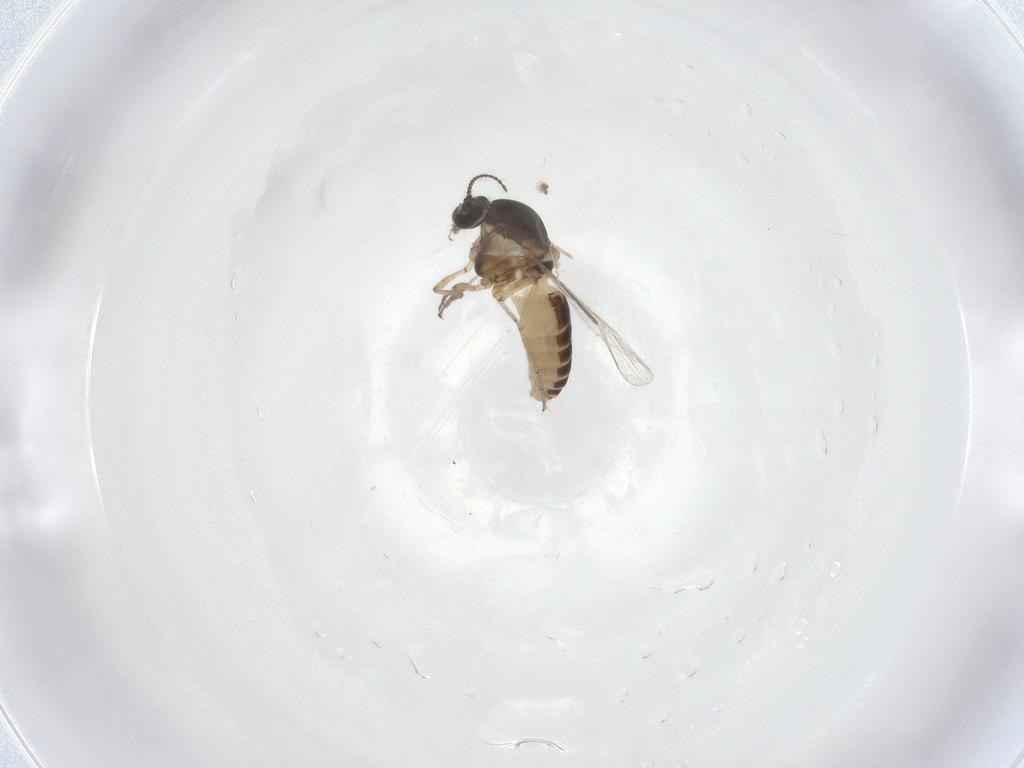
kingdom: Animalia
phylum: Arthropoda
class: Insecta
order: Diptera
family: Ceratopogonidae
